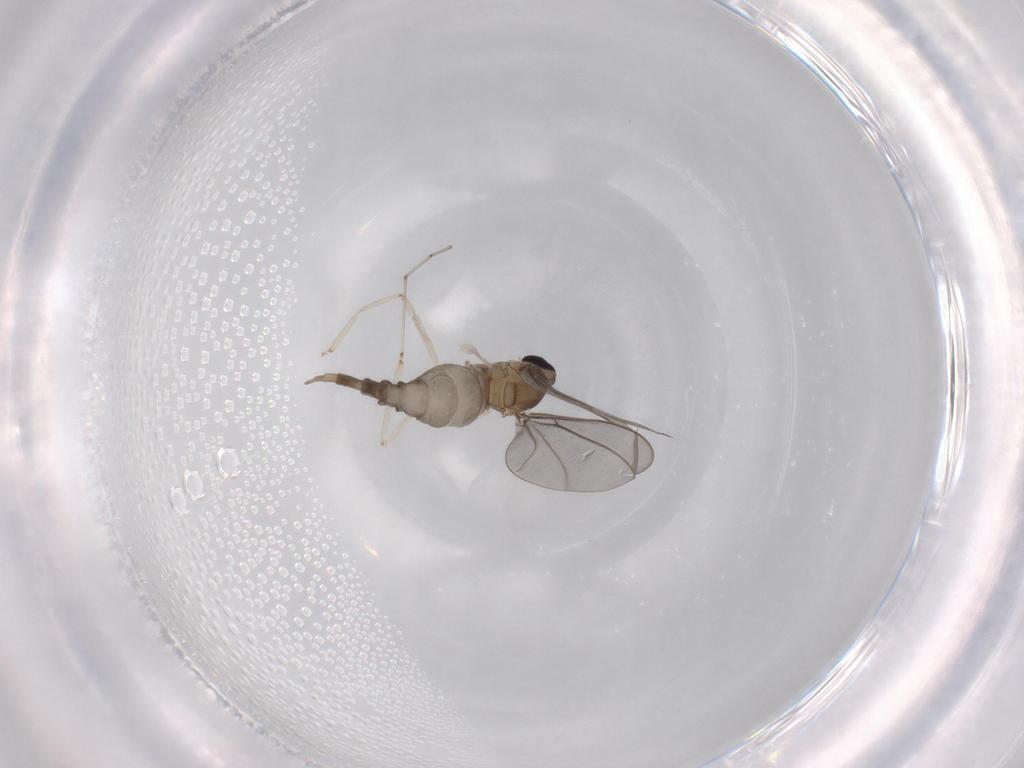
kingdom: Animalia
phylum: Arthropoda
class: Insecta
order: Diptera
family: Cecidomyiidae
